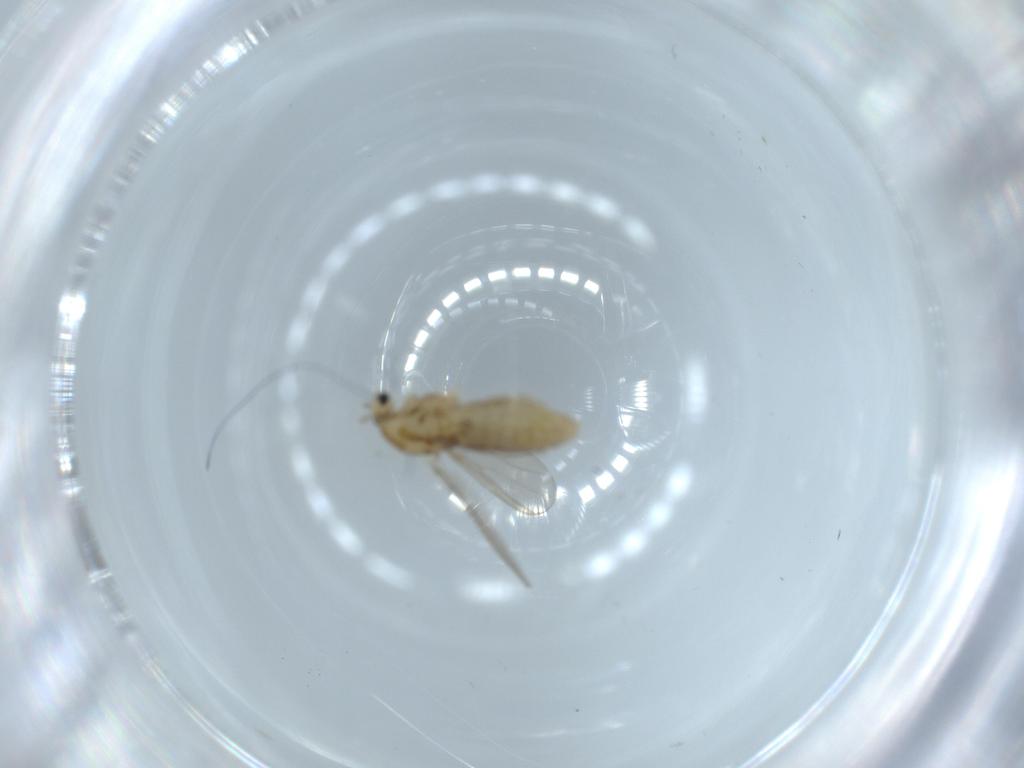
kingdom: Animalia
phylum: Arthropoda
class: Insecta
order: Diptera
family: Chironomidae
